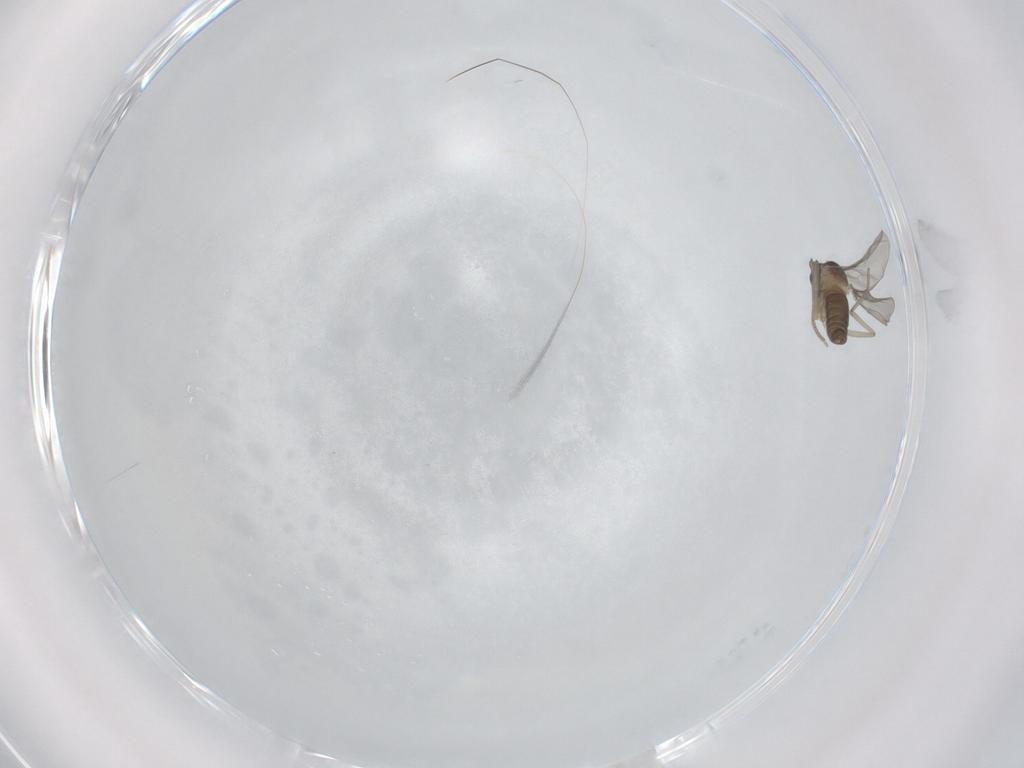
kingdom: Animalia
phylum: Arthropoda
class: Insecta
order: Diptera
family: Cecidomyiidae
